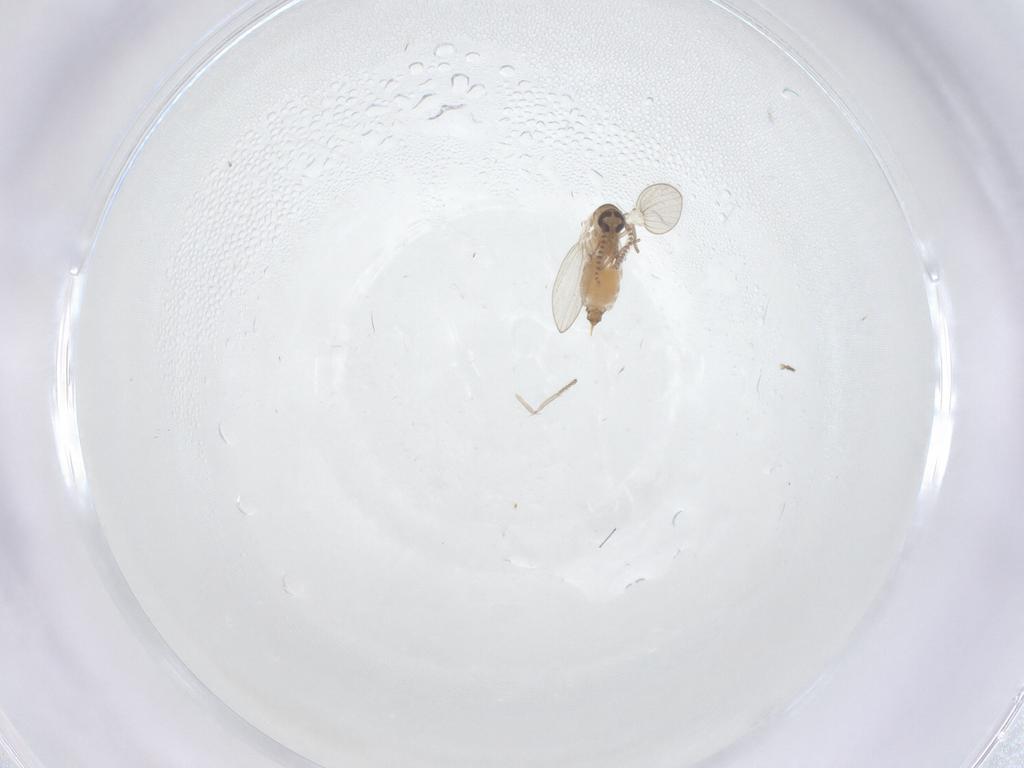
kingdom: Animalia
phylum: Arthropoda
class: Insecta
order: Diptera
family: Psychodidae
